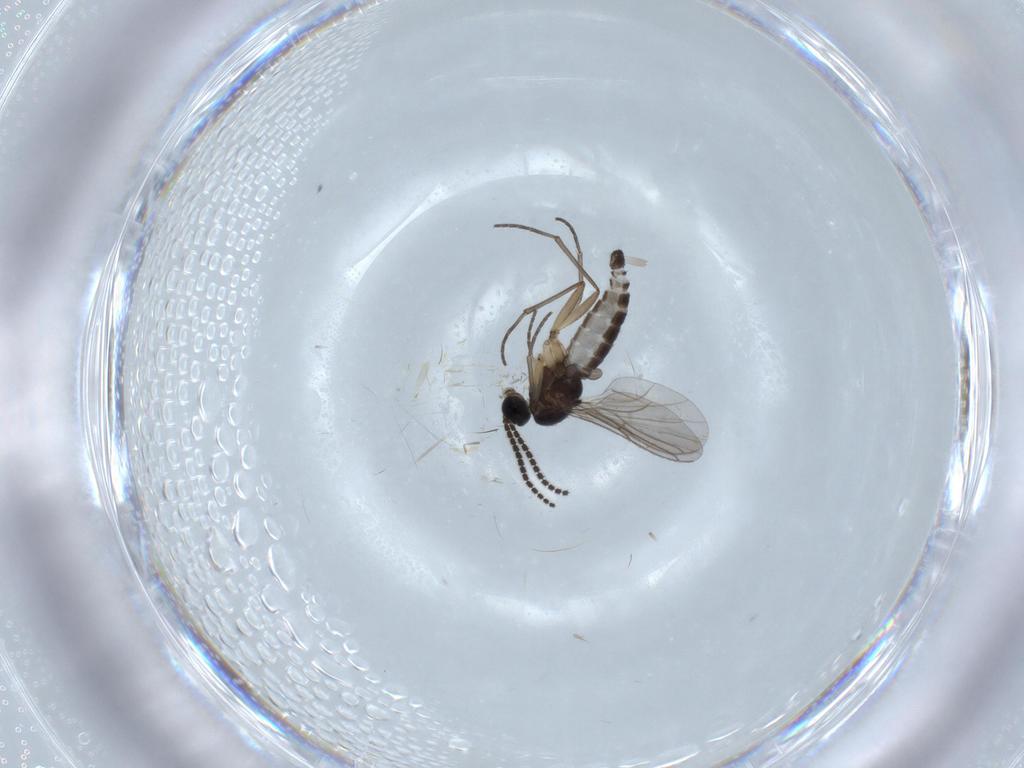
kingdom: Animalia
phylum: Arthropoda
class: Insecta
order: Diptera
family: Sciaridae
